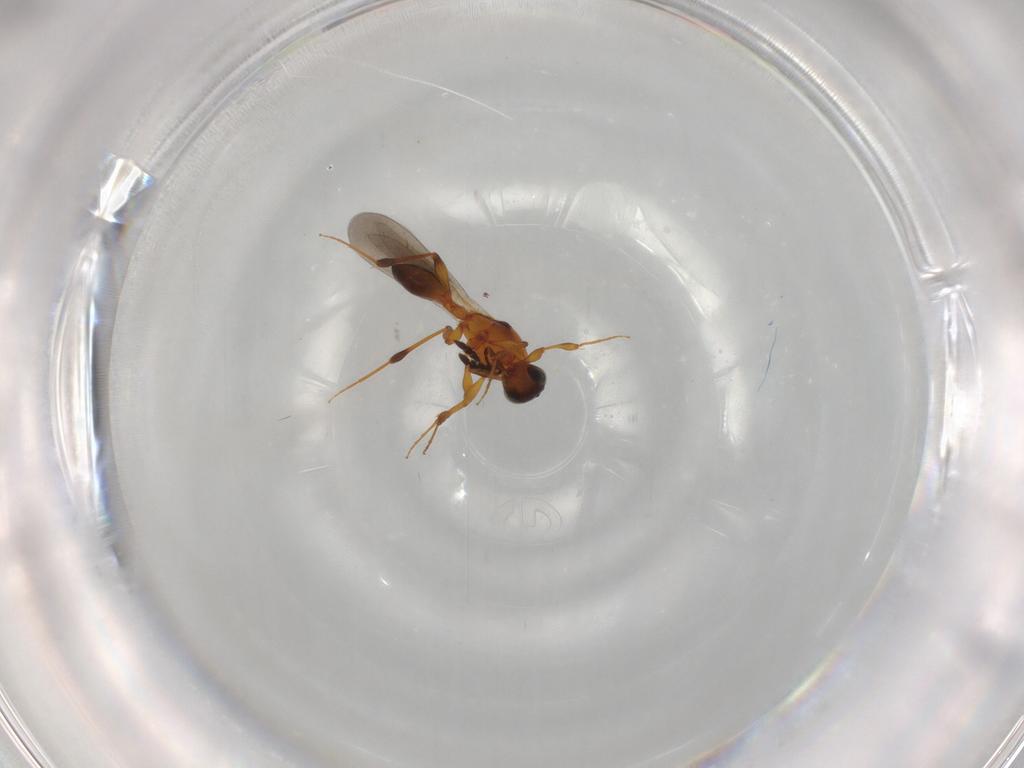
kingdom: Animalia
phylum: Arthropoda
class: Insecta
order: Hymenoptera
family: Platygastridae
